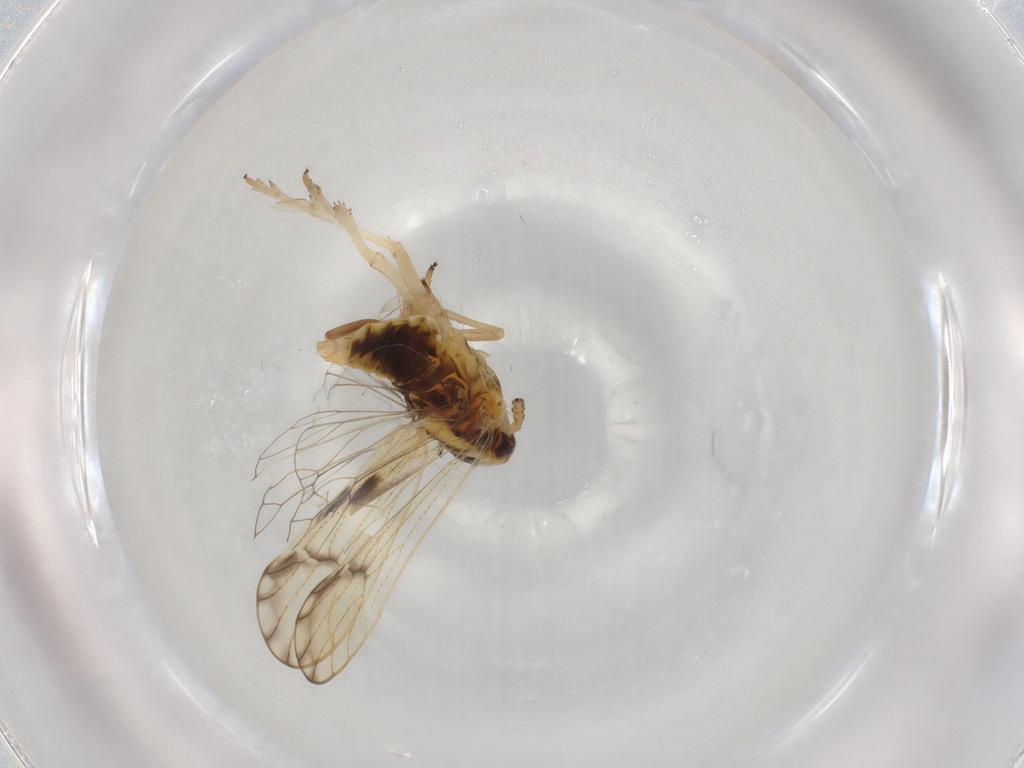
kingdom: Animalia
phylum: Arthropoda
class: Insecta
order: Hemiptera
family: Delphacidae
